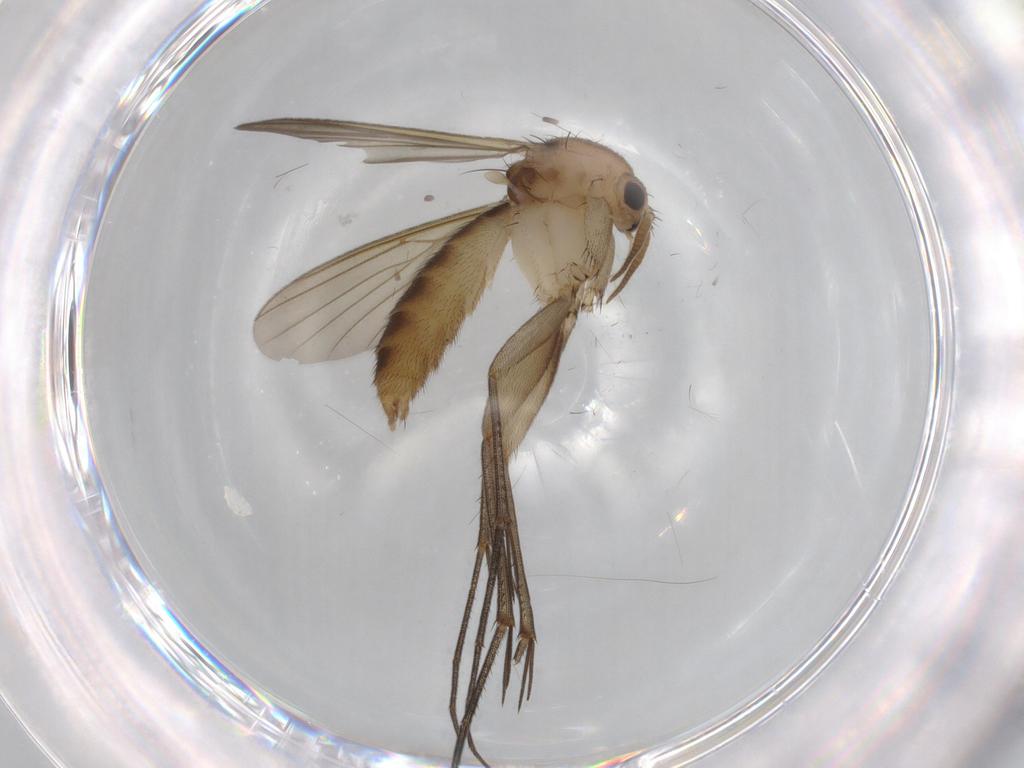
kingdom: Animalia
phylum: Arthropoda
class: Insecta
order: Diptera
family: Mycetophilidae
